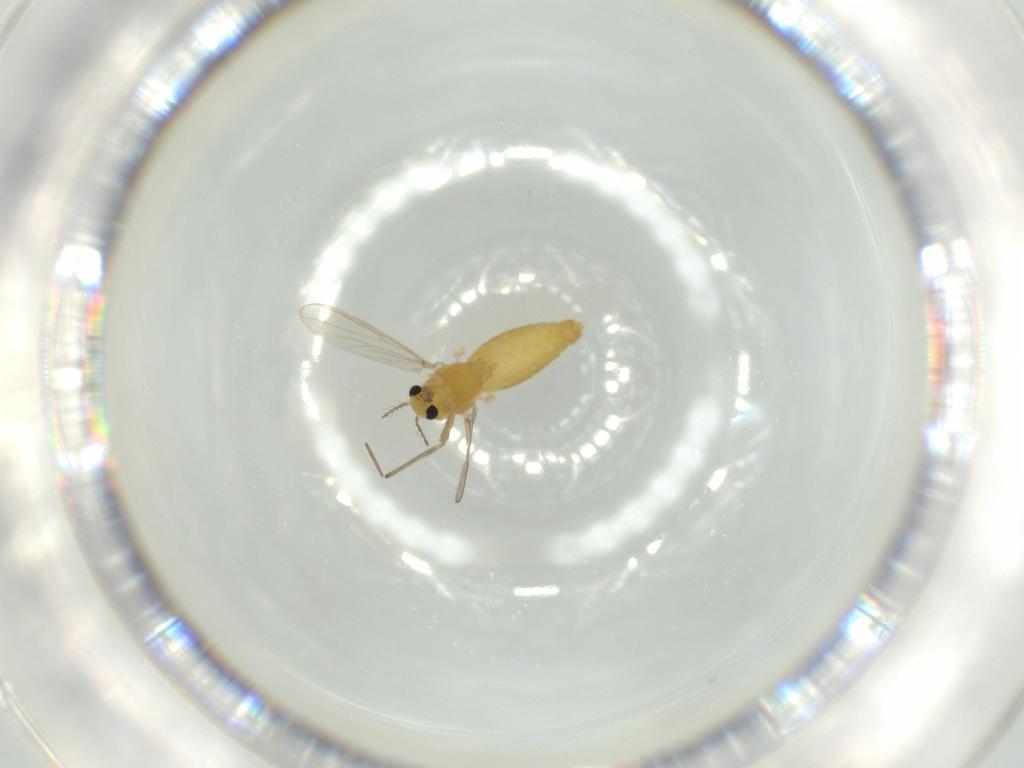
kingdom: Animalia
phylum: Arthropoda
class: Insecta
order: Diptera
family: Chironomidae
